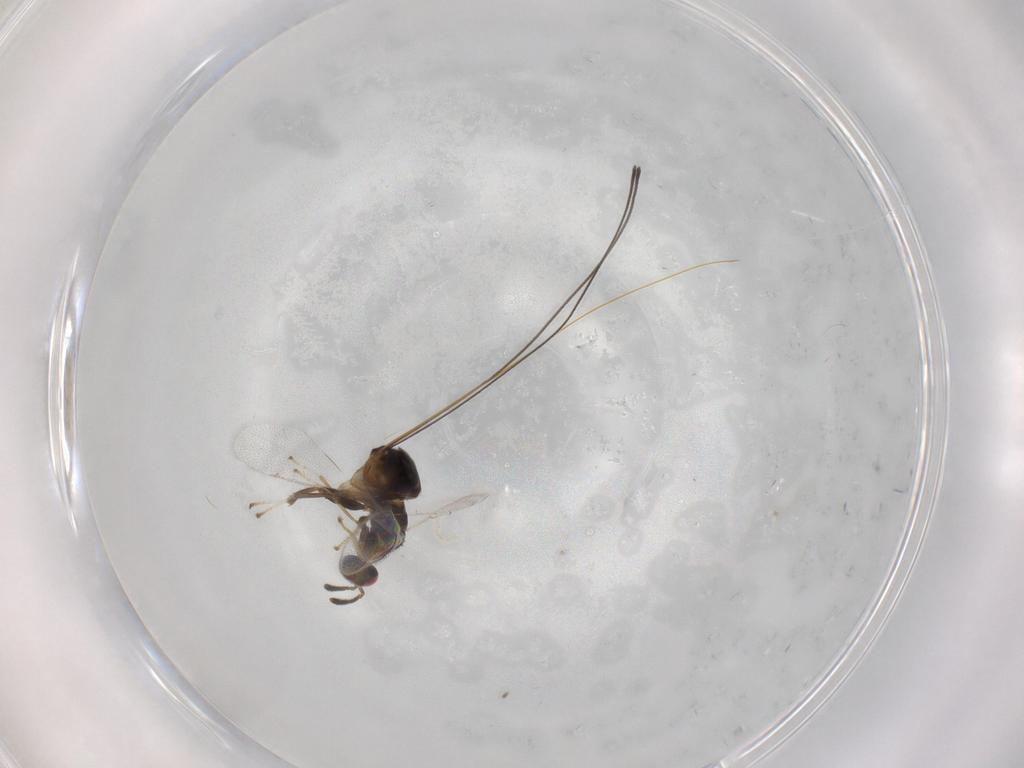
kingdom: Animalia
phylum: Arthropoda
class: Insecta
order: Hymenoptera
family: Torymidae
